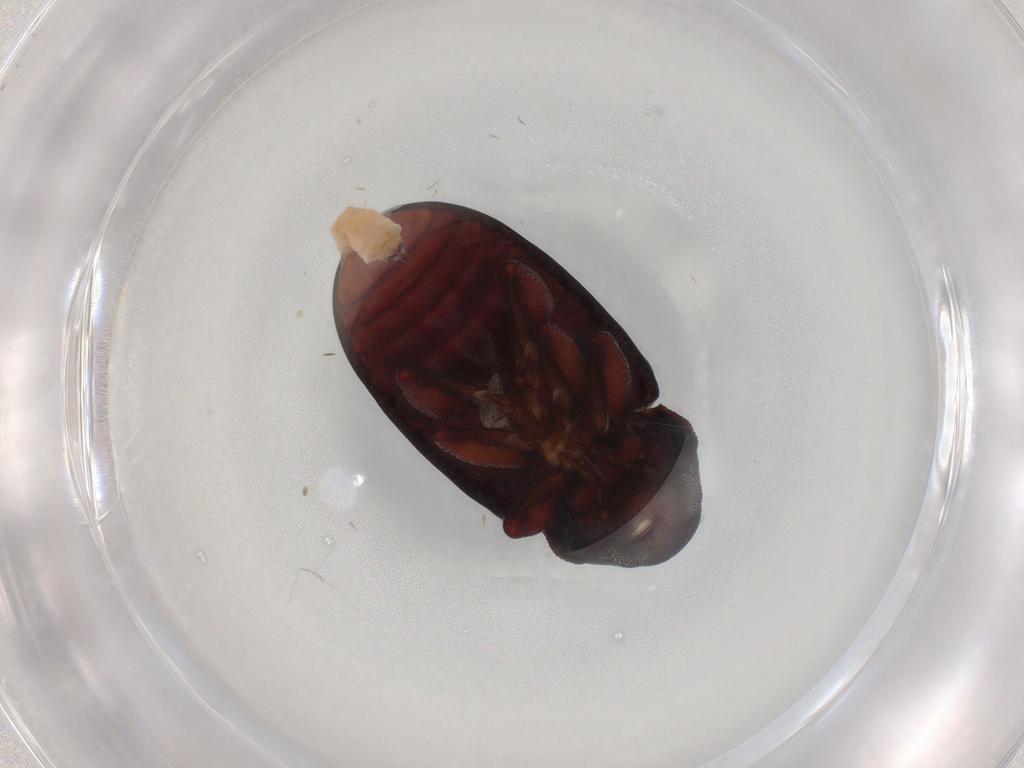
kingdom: Animalia
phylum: Arthropoda
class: Insecta
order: Coleoptera
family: Chrysomelidae
